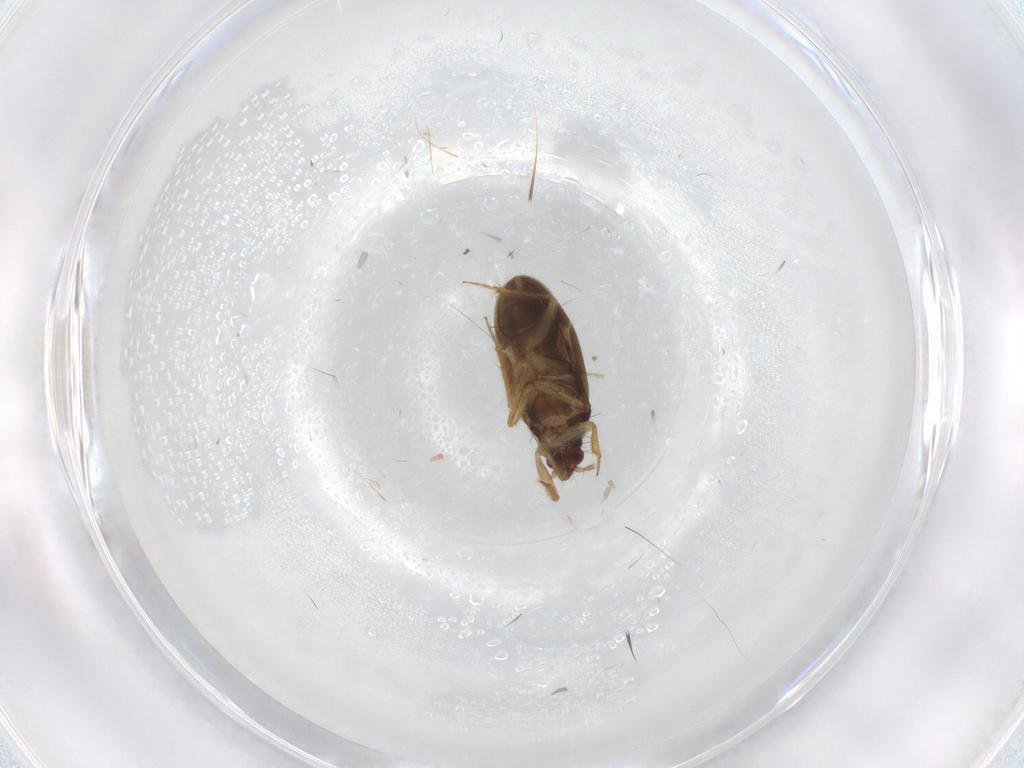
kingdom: Animalia
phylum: Arthropoda
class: Insecta
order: Hemiptera
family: Ceratocombidae
